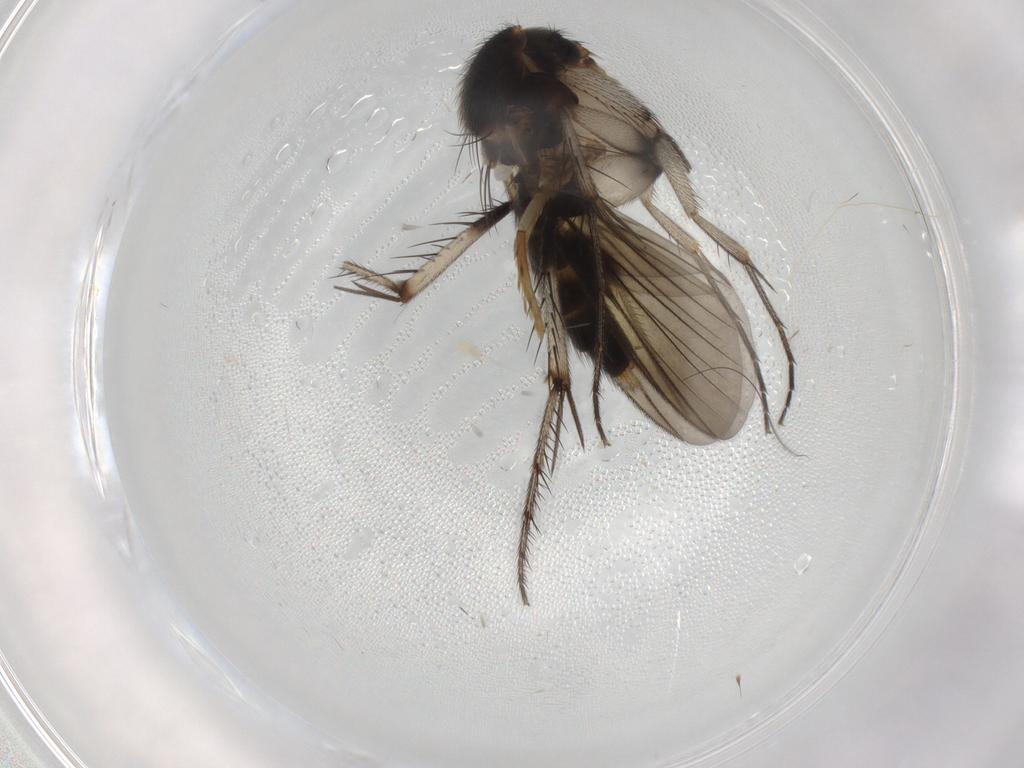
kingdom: Animalia
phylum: Arthropoda
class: Insecta
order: Diptera
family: Mycetophilidae
